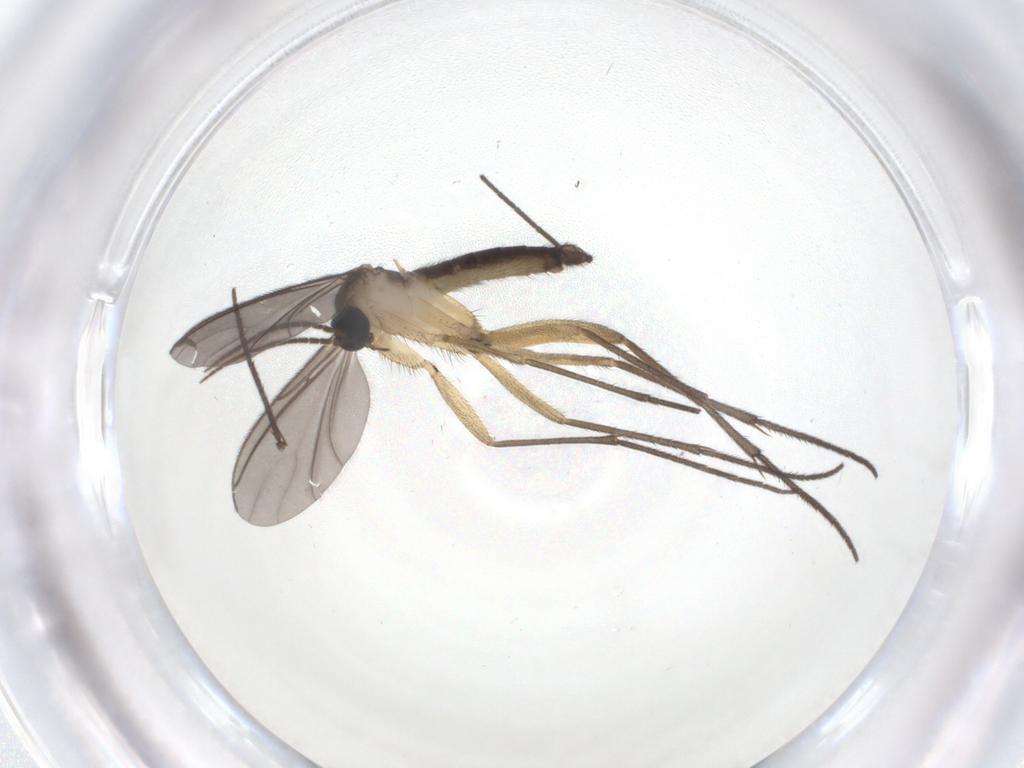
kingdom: Animalia
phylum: Arthropoda
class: Insecta
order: Diptera
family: Sciaridae
